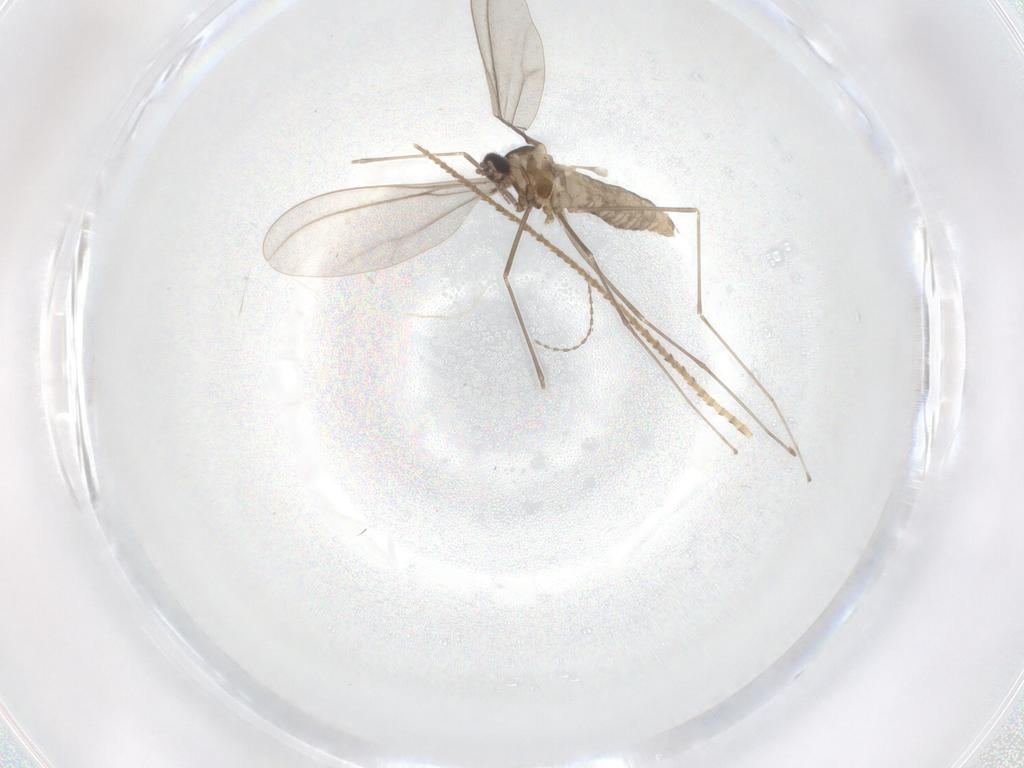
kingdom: Animalia
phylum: Arthropoda
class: Insecta
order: Diptera
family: Cecidomyiidae
